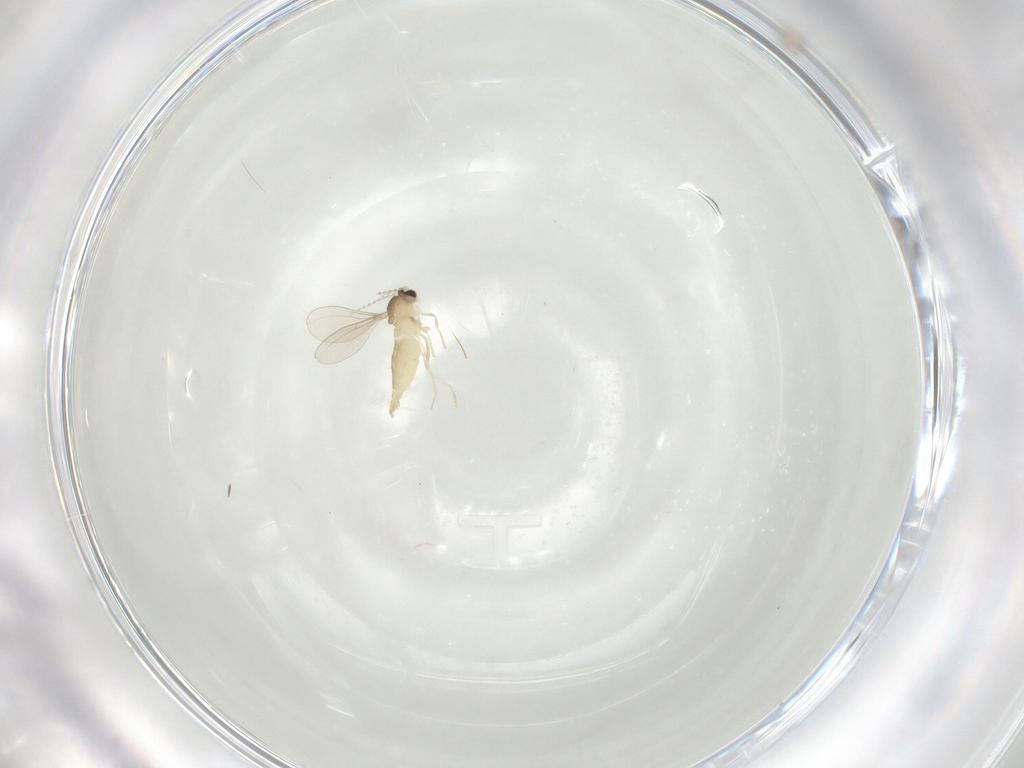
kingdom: Animalia
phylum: Arthropoda
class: Insecta
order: Diptera
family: Cecidomyiidae
